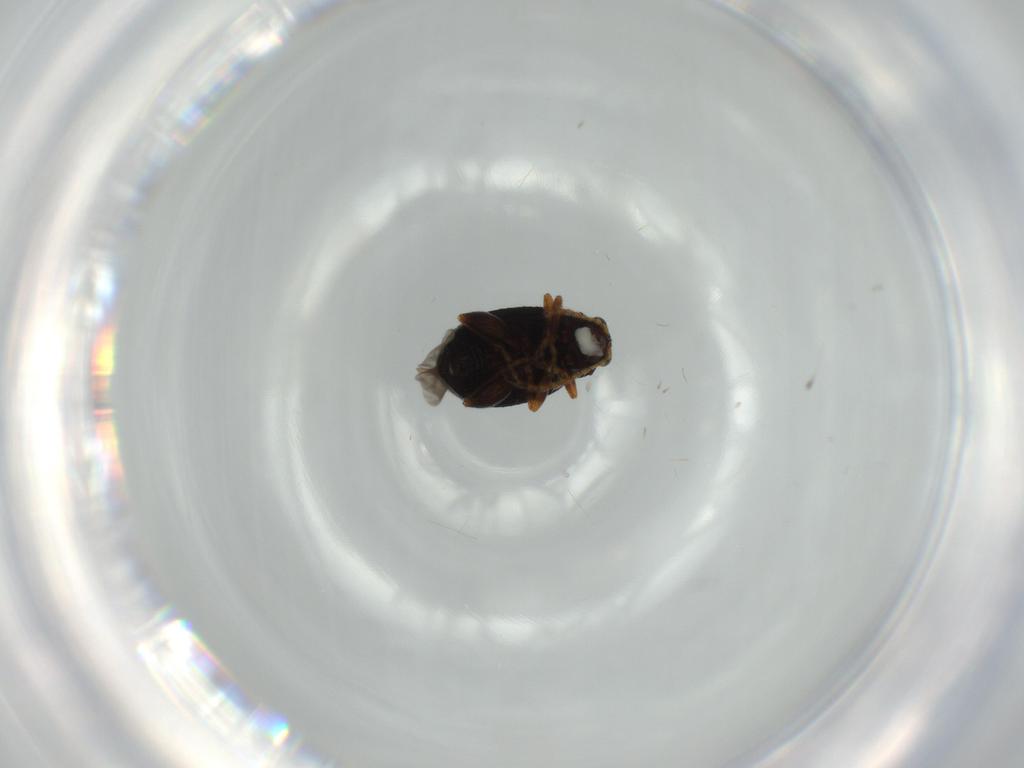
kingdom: Animalia
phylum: Arthropoda
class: Insecta
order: Coleoptera
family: Chrysomelidae
